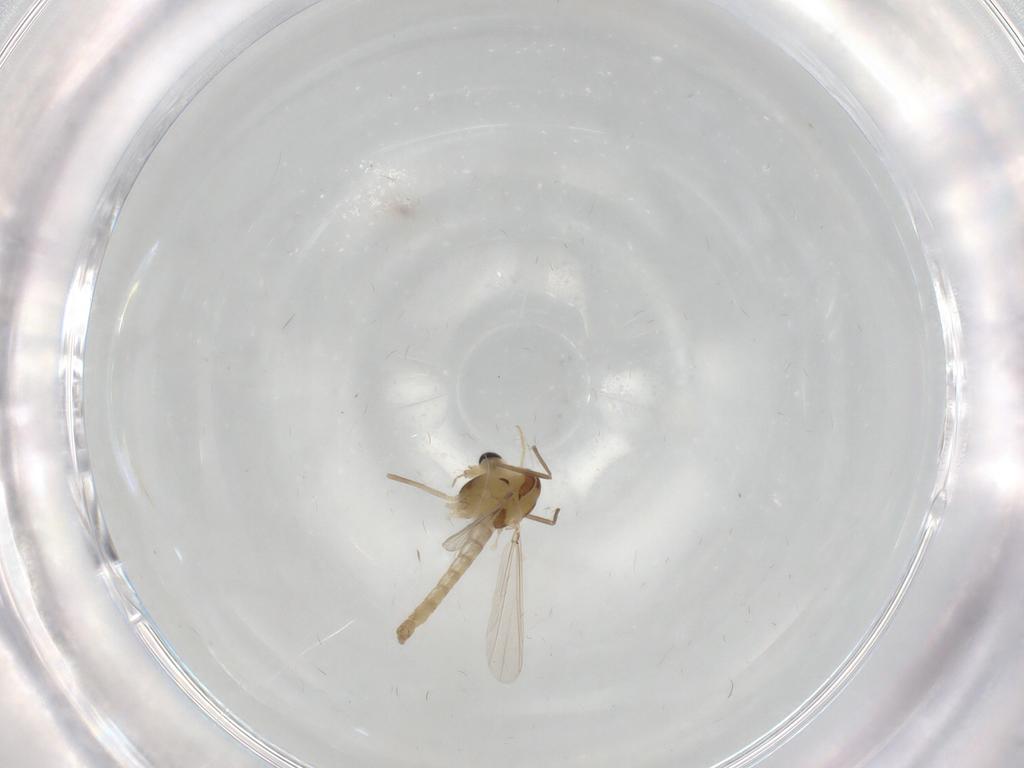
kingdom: Animalia
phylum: Arthropoda
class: Insecta
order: Diptera
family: Chironomidae
